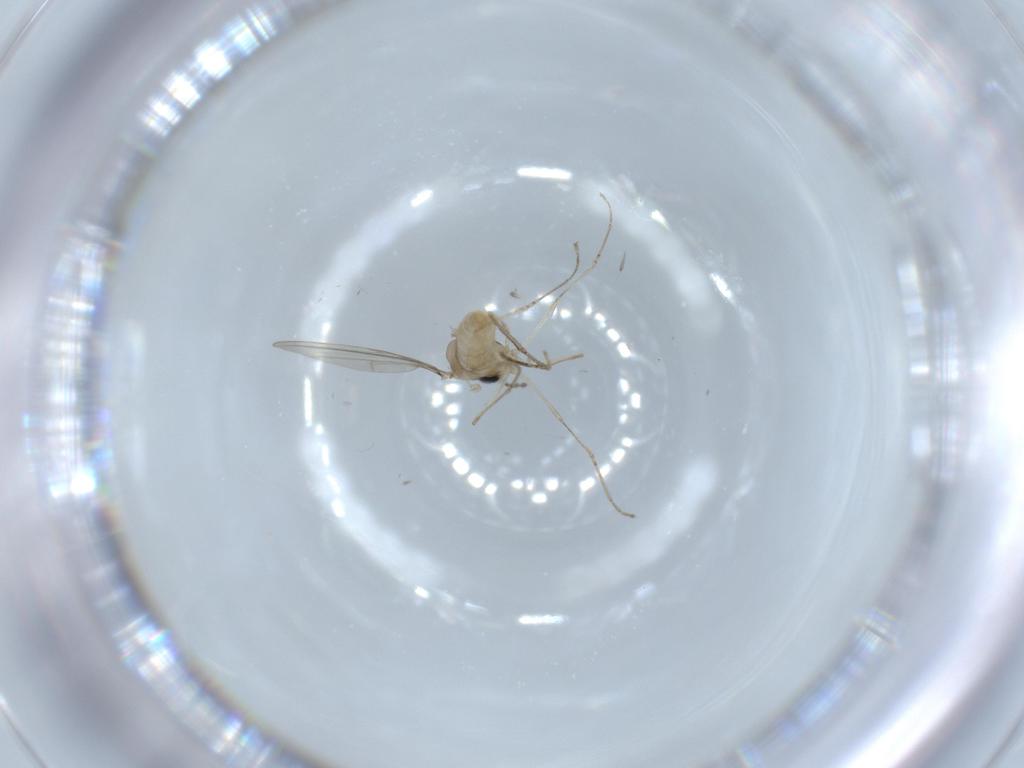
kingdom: Animalia
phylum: Arthropoda
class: Insecta
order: Diptera
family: Cecidomyiidae
